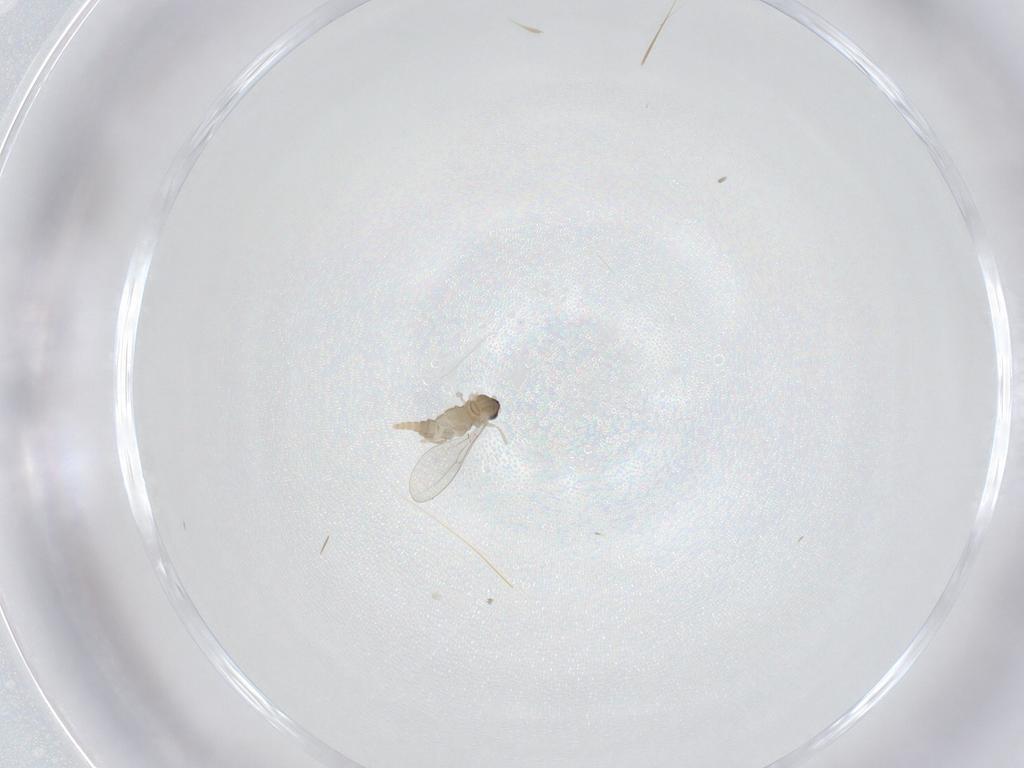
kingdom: Animalia
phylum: Arthropoda
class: Insecta
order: Diptera
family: Cecidomyiidae
